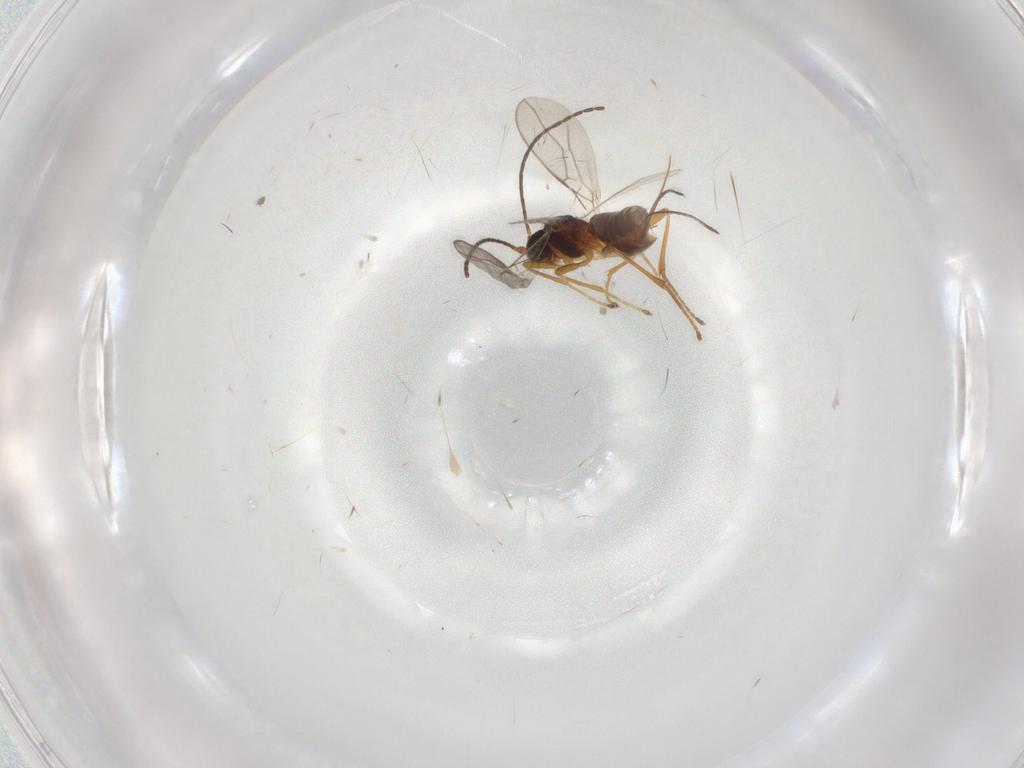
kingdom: Animalia
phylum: Arthropoda
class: Insecta
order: Hymenoptera
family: Braconidae
